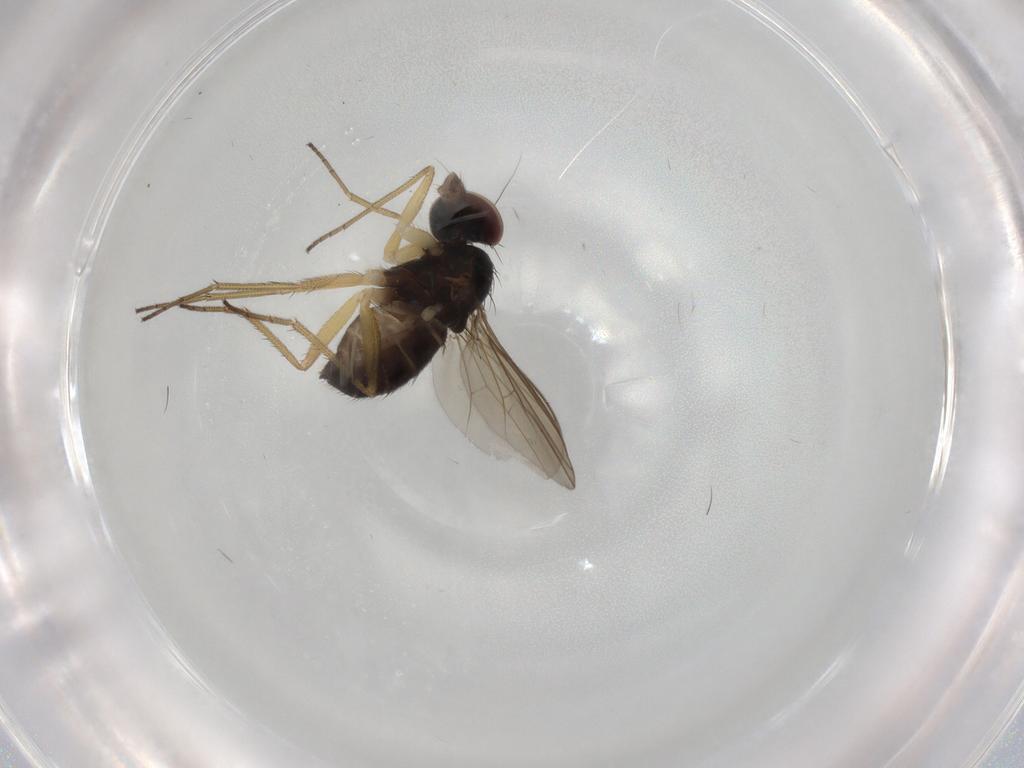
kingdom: Animalia
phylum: Arthropoda
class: Insecta
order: Diptera
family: Dolichopodidae
